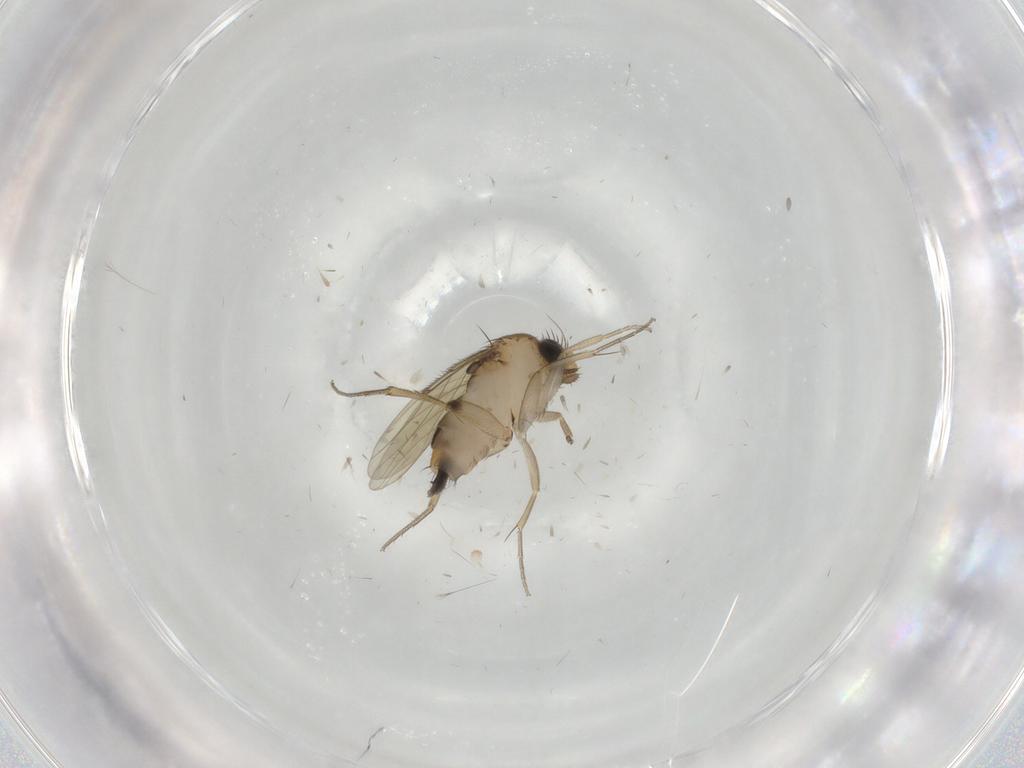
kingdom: Animalia
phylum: Arthropoda
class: Insecta
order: Diptera
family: Phoridae
